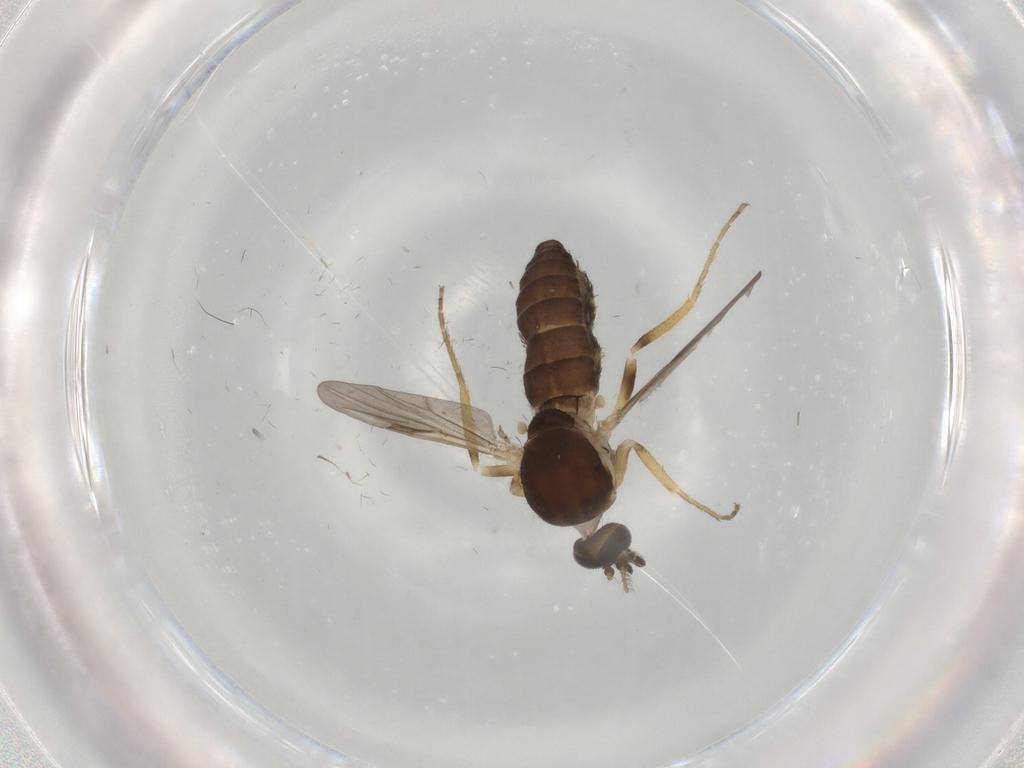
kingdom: Animalia
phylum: Arthropoda
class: Insecta
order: Diptera
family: Ceratopogonidae
